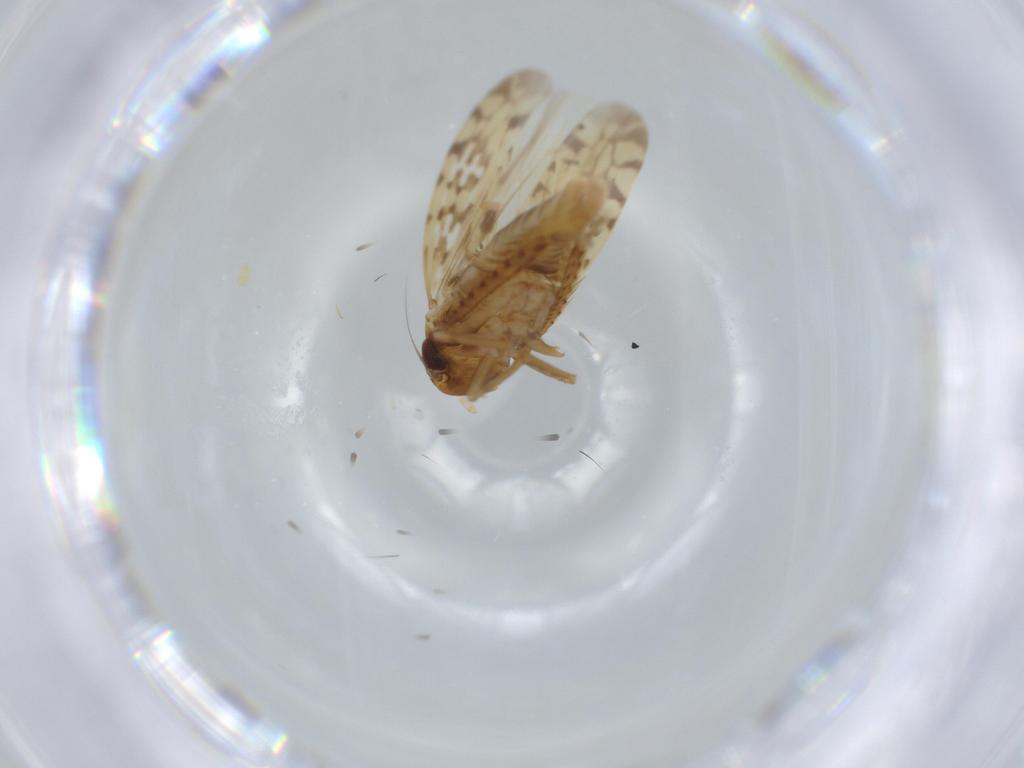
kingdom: Animalia
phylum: Arthropoda
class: Insecta
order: Hemiptera
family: Cicadellidae
